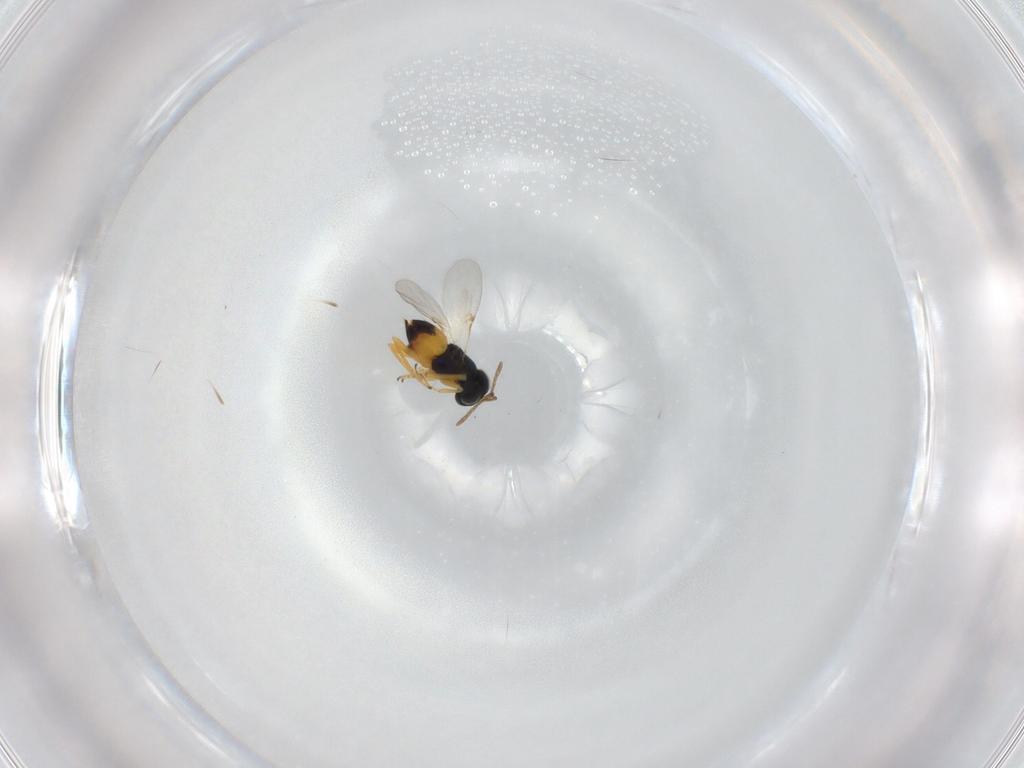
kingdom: Animalia
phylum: Arthropoda
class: Insecta
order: Hymenoptera
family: Encyrtidae
